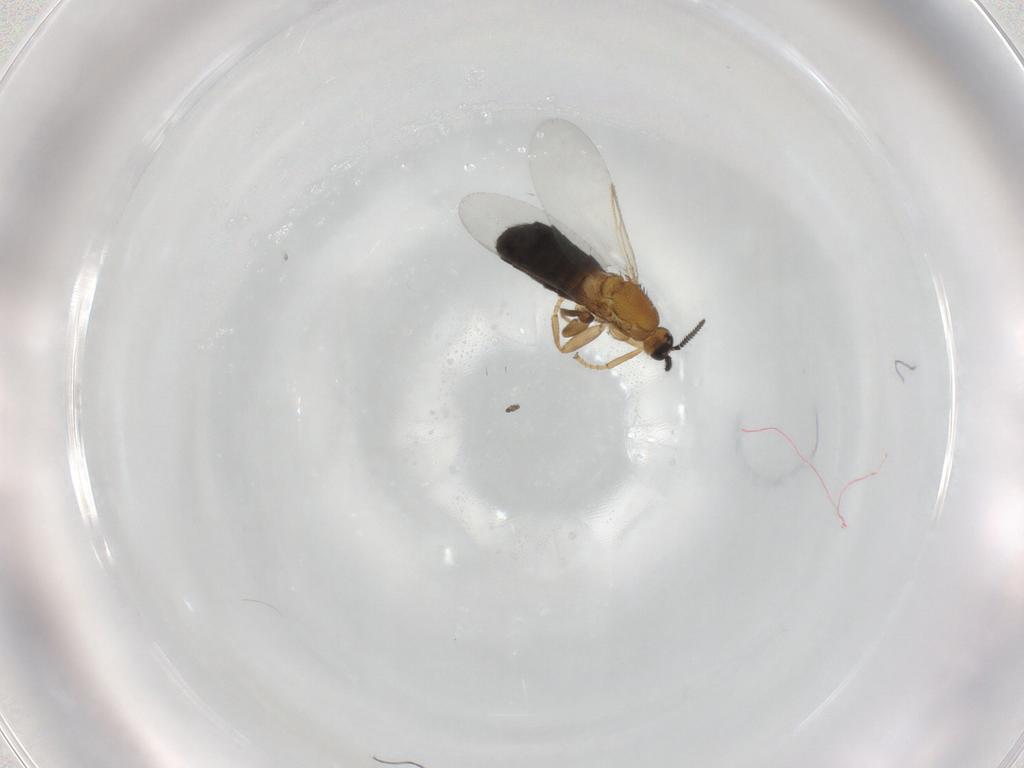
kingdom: Animalia
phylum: Arthropoda
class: Insecta
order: Diptera
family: Scatopsidae
